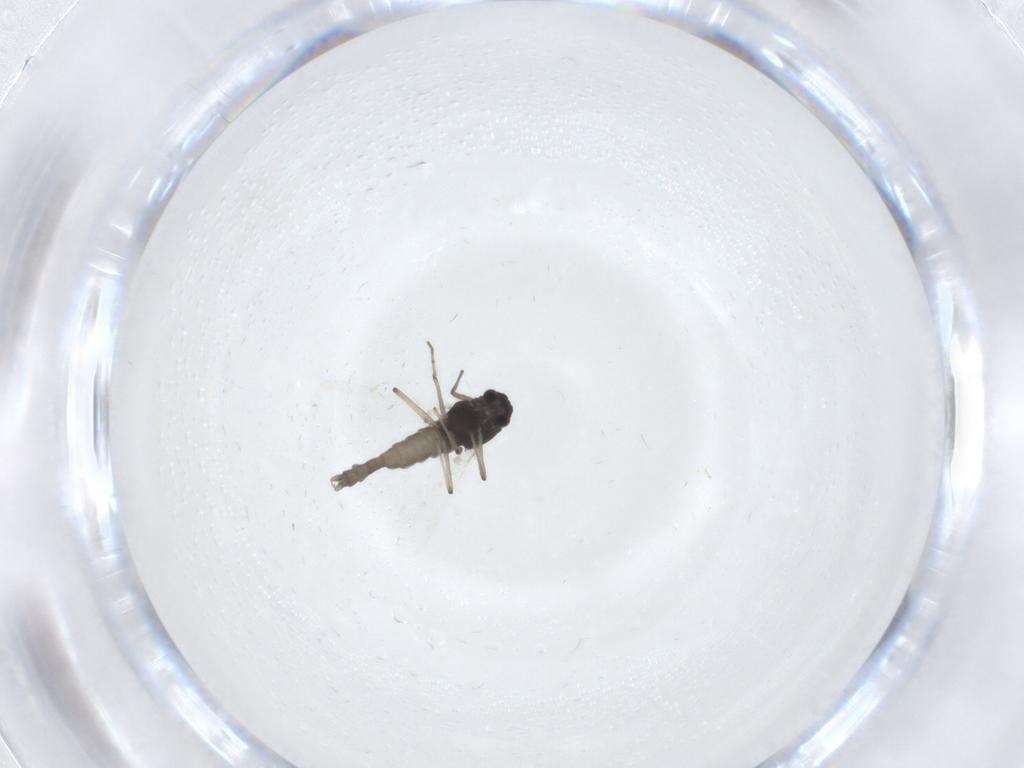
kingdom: Animalia
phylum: Arthropoda
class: Insecta
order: Diptera
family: Chironomidae
